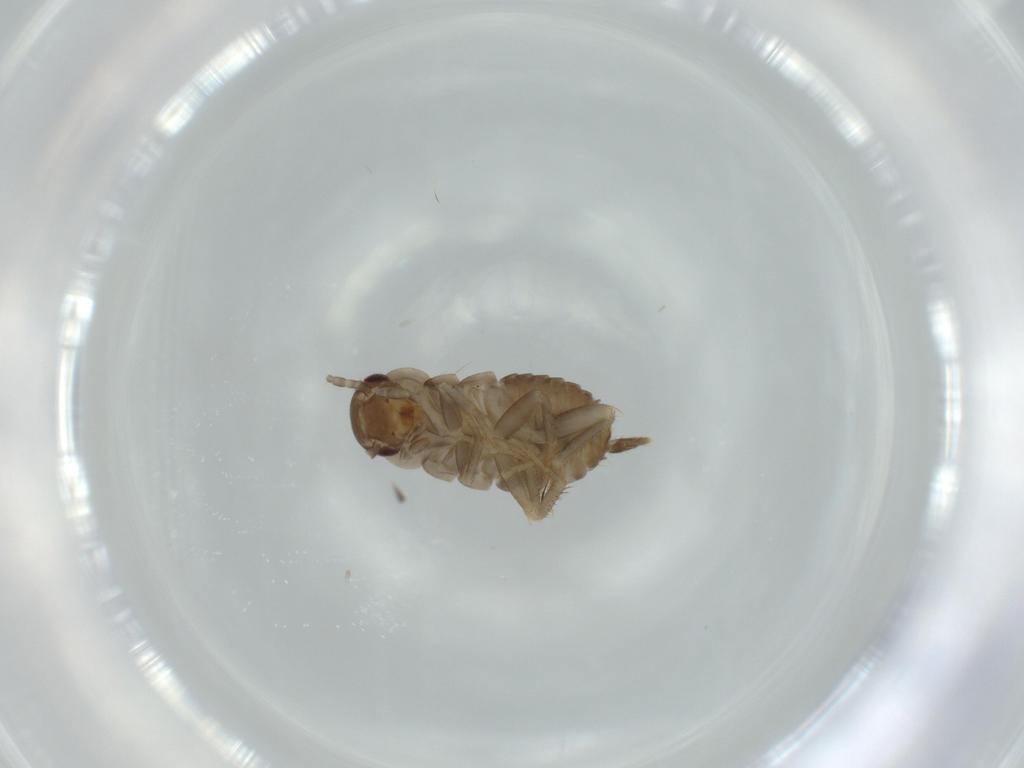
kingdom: Animalia
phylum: Arthropoda
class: Insecta
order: Blattodea
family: Ectobiidae
